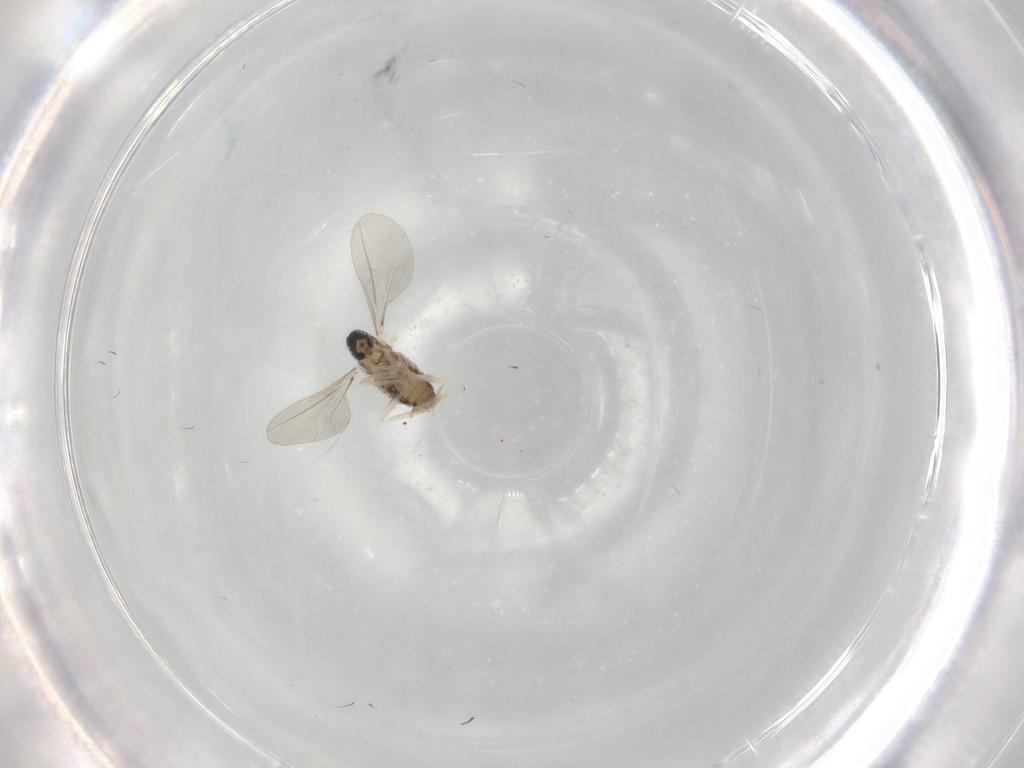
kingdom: Animalia
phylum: Arthropoda
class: Insecta
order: Diptera
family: Cecidomyiidae
